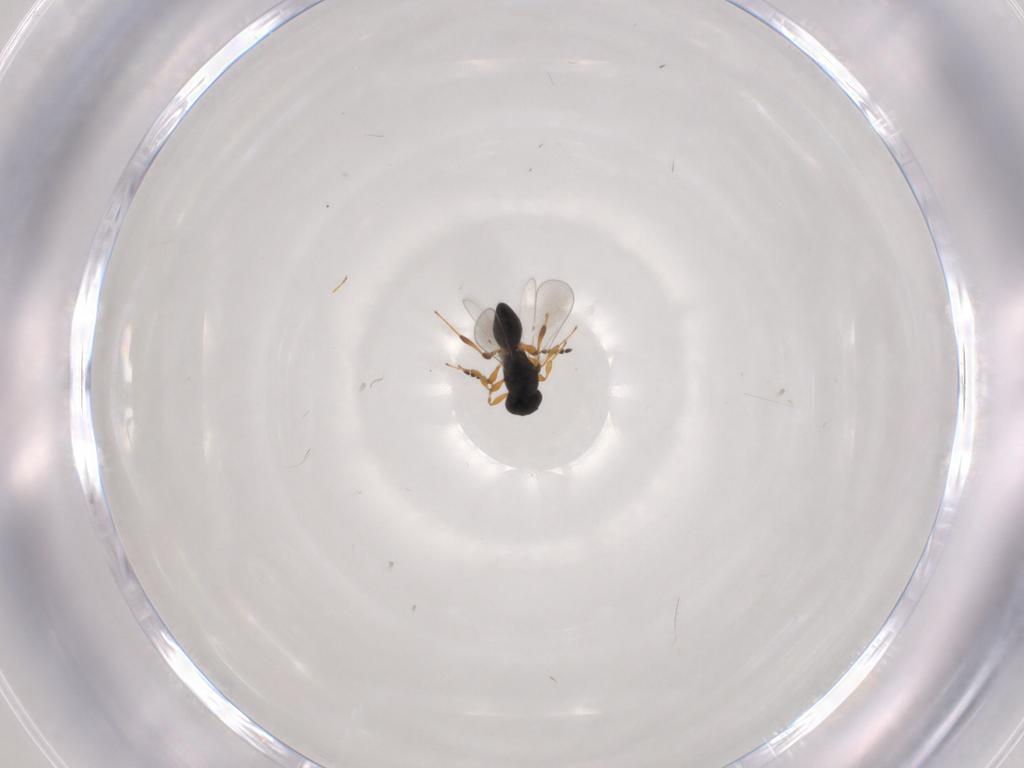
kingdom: Animalia
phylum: Arthropoda
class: Insecta
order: Hymenoptera
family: Platygastridae
